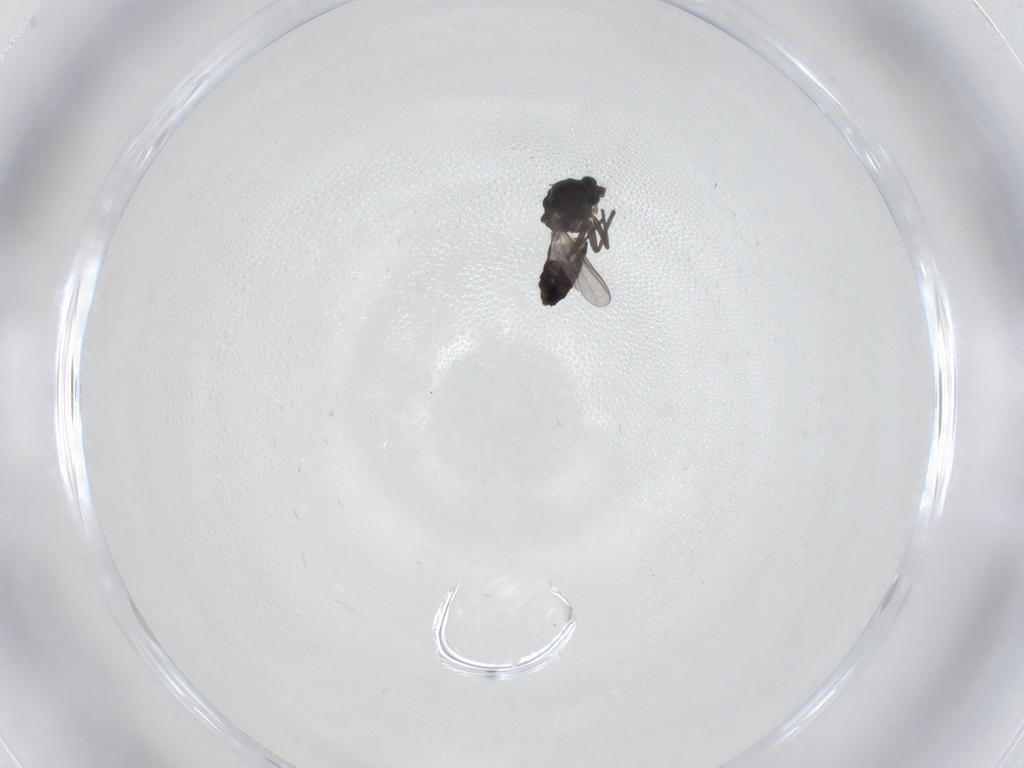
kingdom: Animalia
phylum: Arthropoda
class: Insecta
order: Diptera
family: Chironomidae
